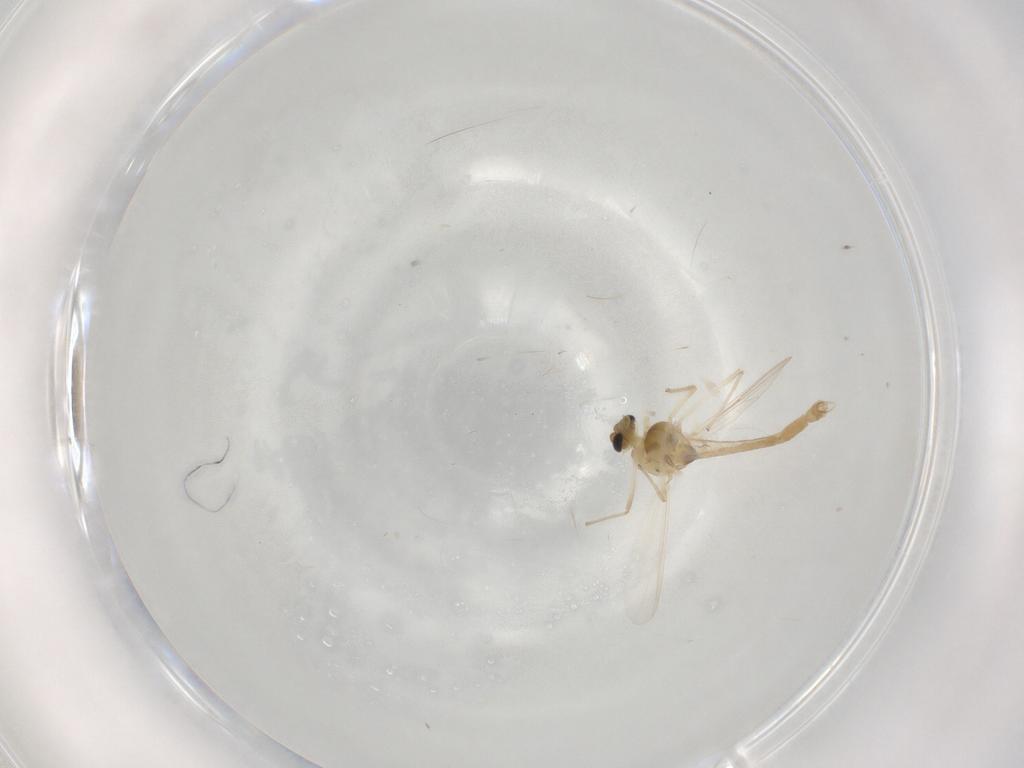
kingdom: Animalia
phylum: Arthropoda
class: Insecta
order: Diptera
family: Chironomidae
